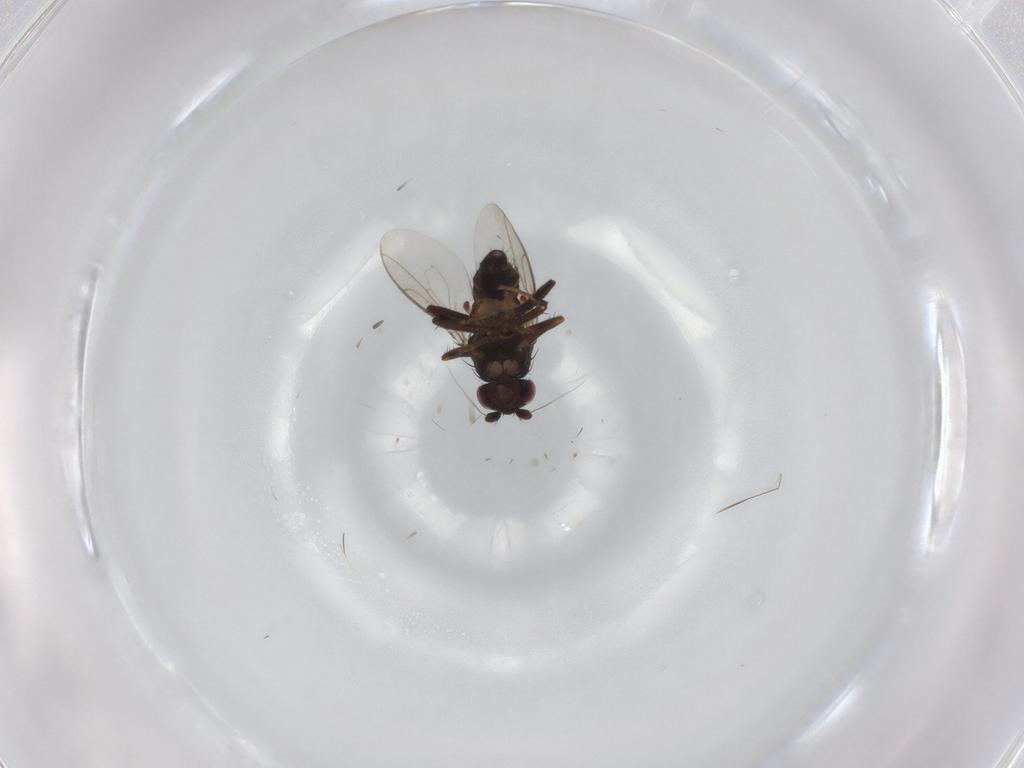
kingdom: Animalia
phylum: Arthropoda
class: Insecta
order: Diptera
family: Sphaeroceridae
